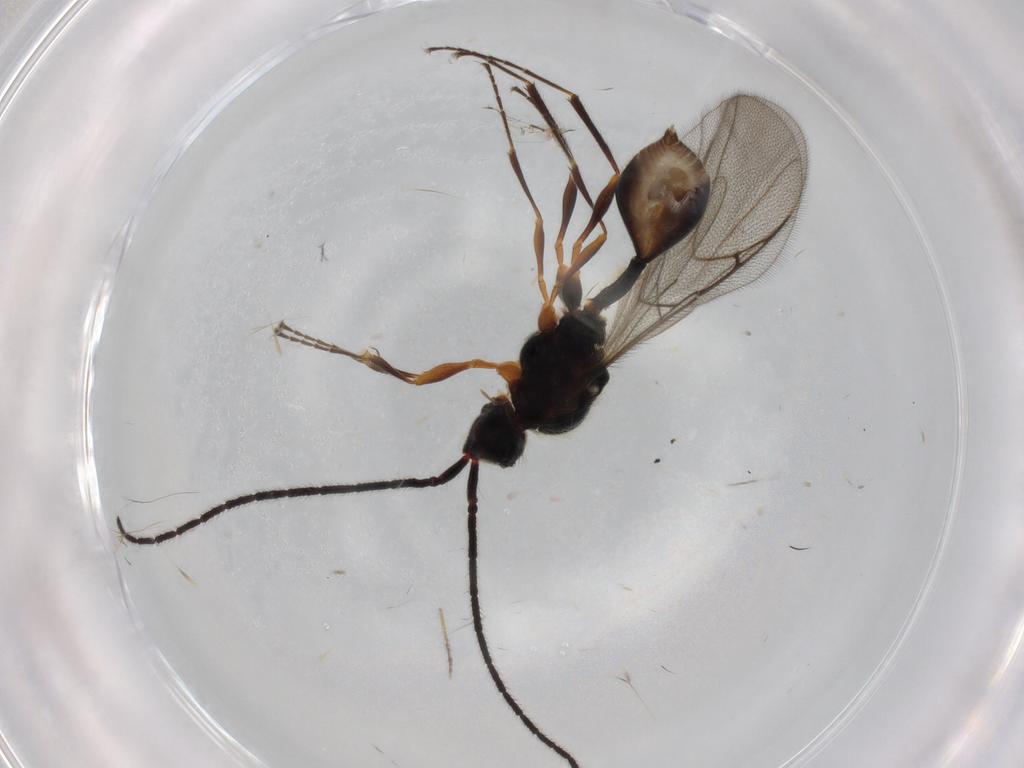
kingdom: Animalia
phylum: Arthropoda
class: Insecta
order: Hymenoptera
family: Diapriidae
